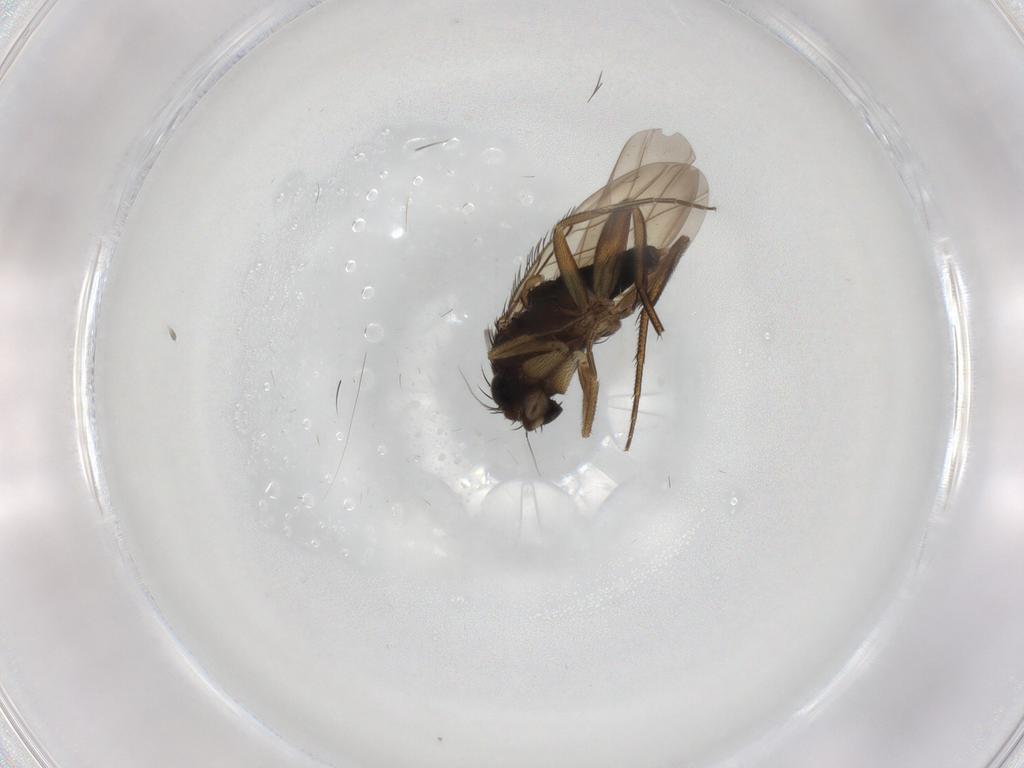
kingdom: Animalia
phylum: Arthropoda
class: Insecta
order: Diptera
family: Phoridae
